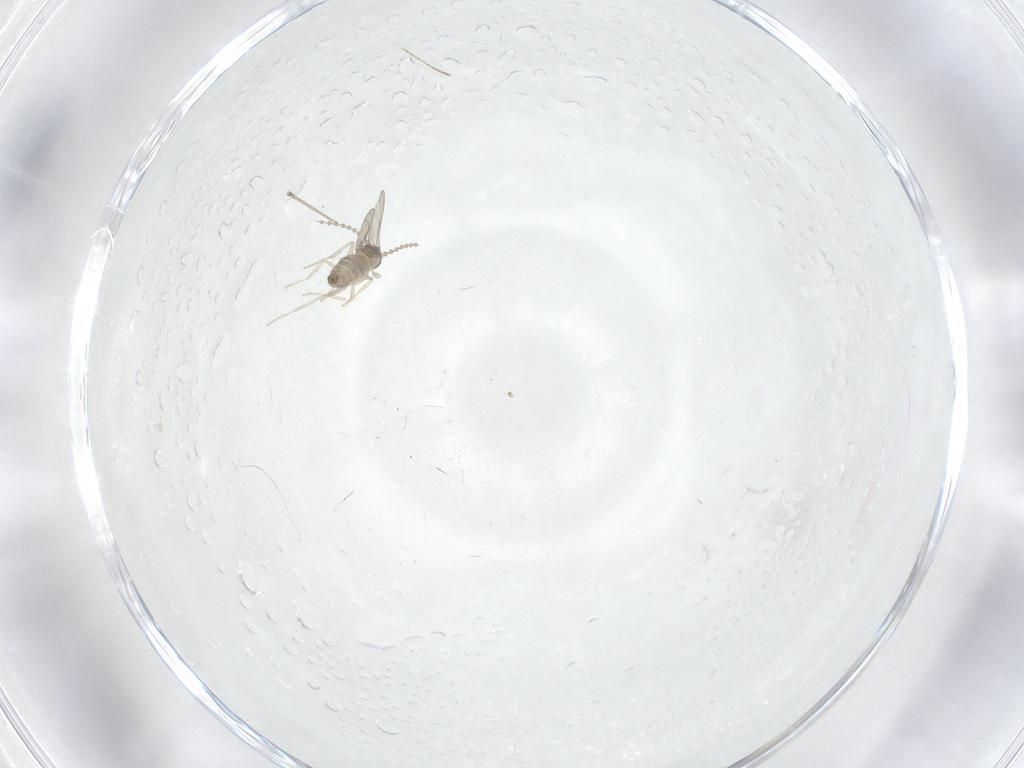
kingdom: Animalia
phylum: Arthropoda
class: Insecta
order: Diptera
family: Cecidomyiidae
